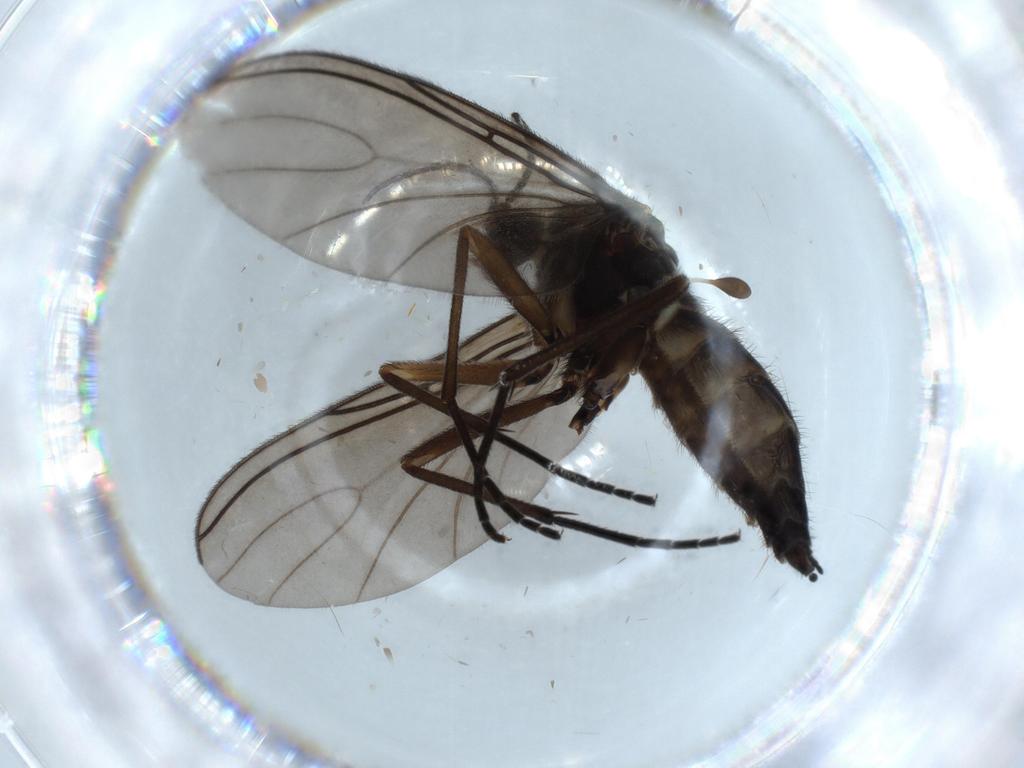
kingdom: Animalia
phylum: Arthropoda
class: Insecta
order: Diptera
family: Sciaridae
